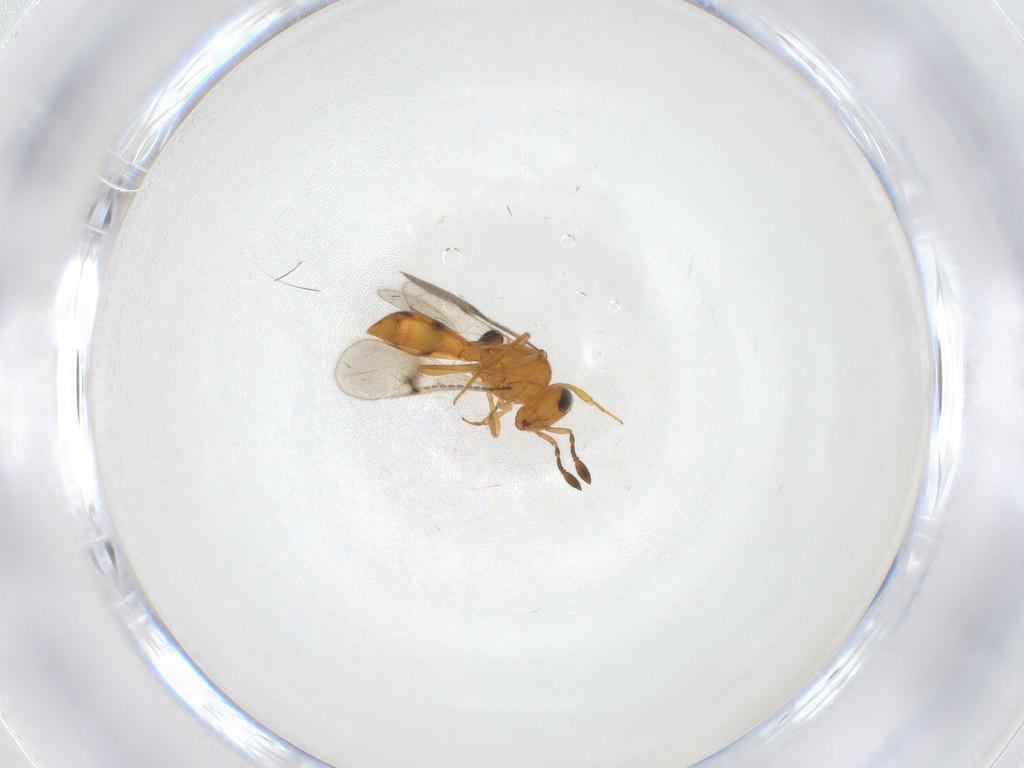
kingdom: Animalia
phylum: Arthropoda
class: Insecta
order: Hymenoptera
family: Scelionidae
